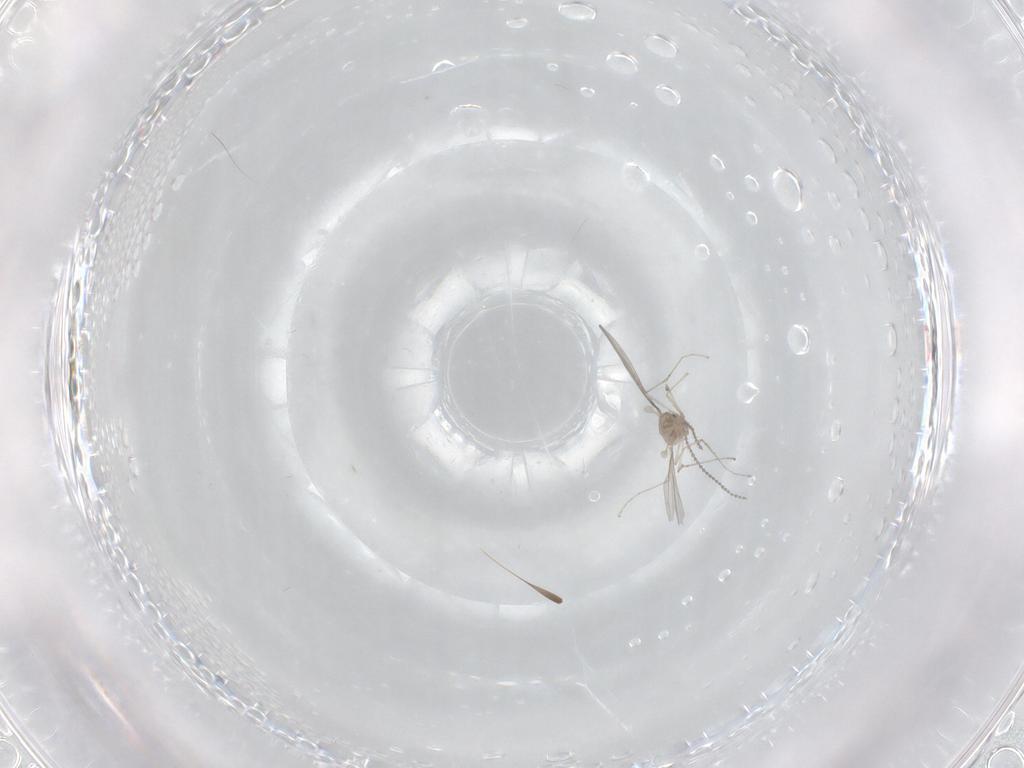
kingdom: Animalia
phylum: Arthropoda
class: Insecta
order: Diptera
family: Cecidomyiidae
